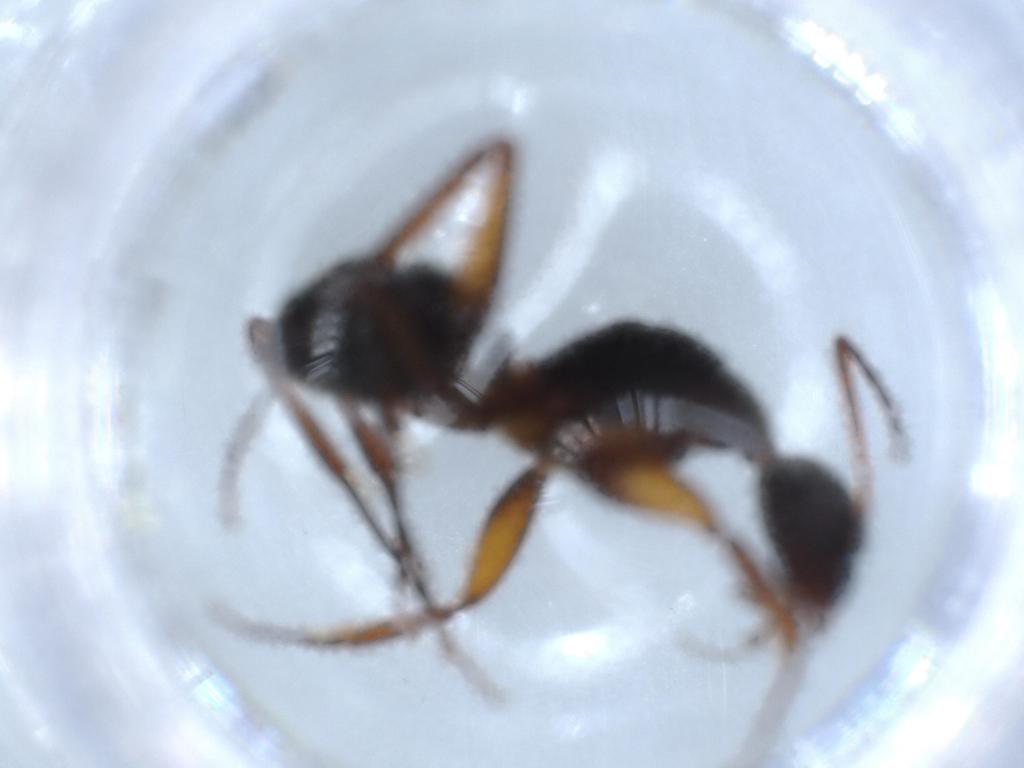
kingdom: Animalia
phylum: Arthropoda
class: Insecta
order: Hymenoptera
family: Formicidae
